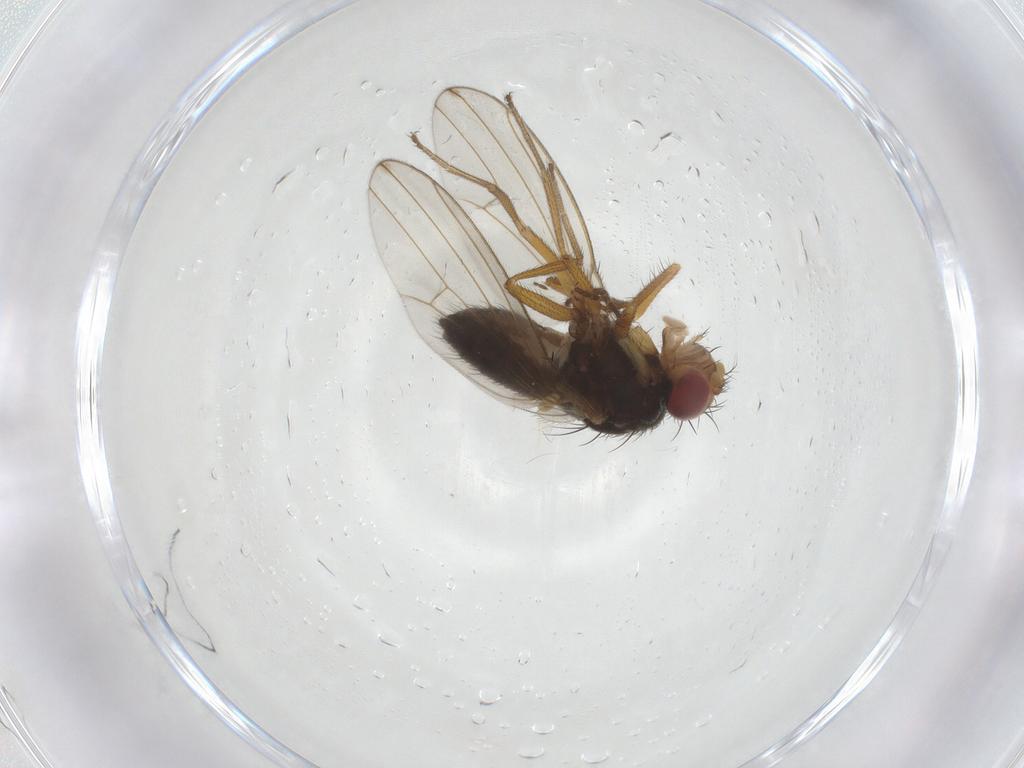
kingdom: Animalia
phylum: Arthropoda
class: Insecta
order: Diptera
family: Drosophilidae
